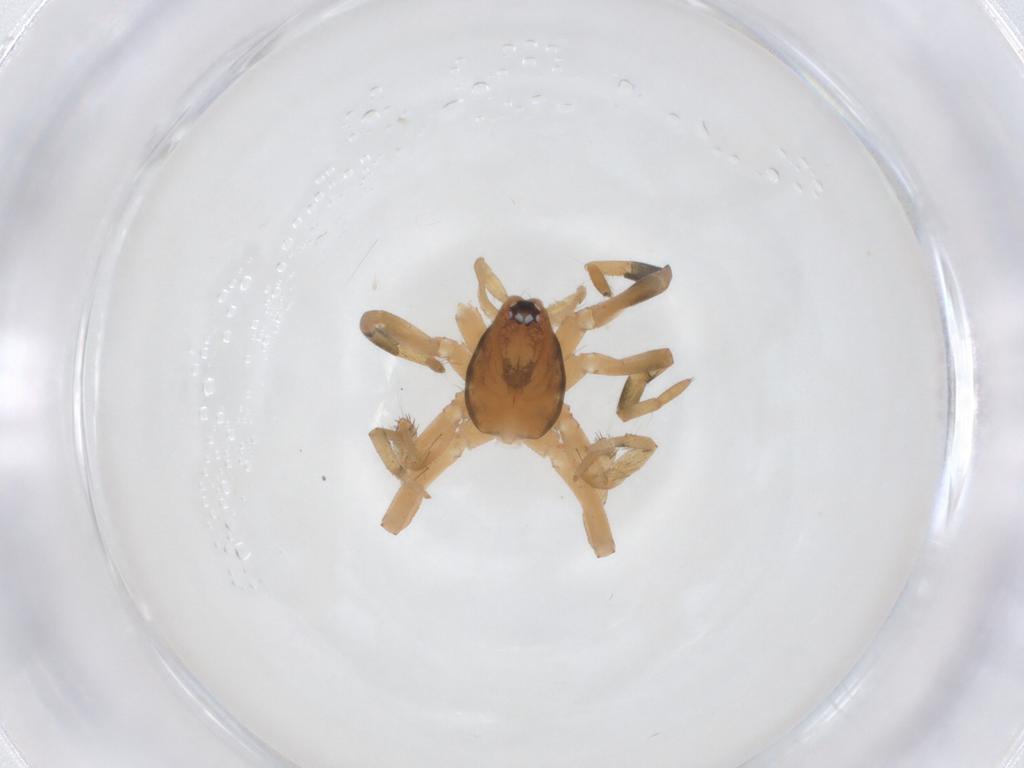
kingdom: Animalia
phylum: Arthropoda
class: Arachnida
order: Araneae
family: Gnaphosidae
